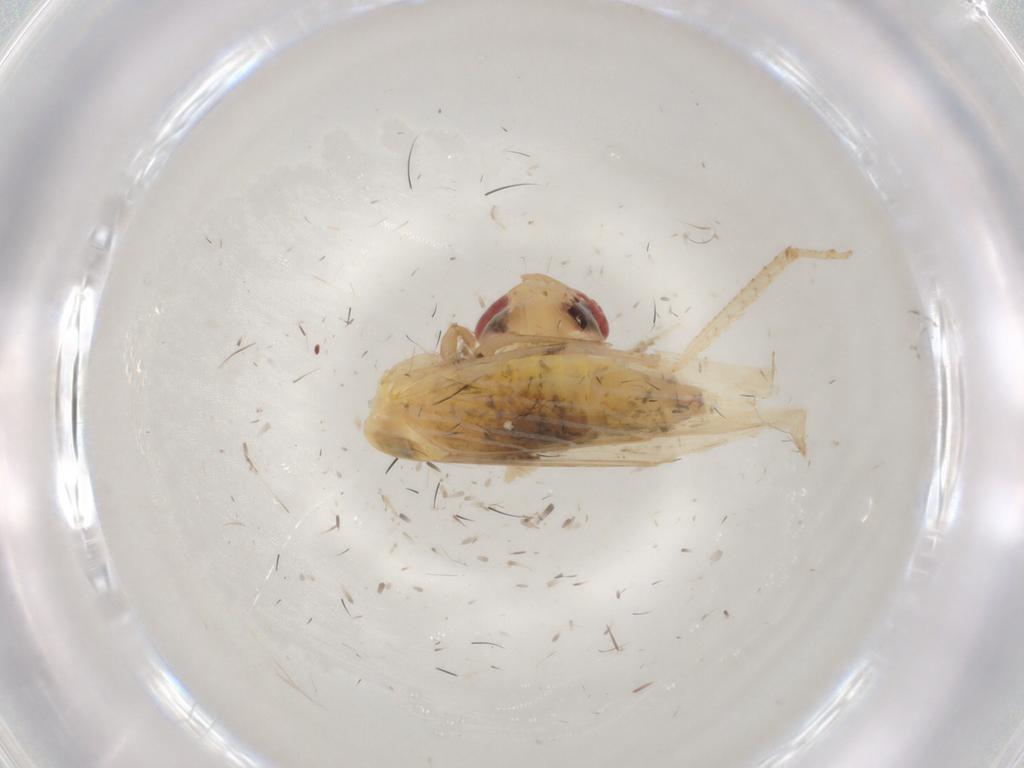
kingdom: Animalia
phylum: Arthropoda
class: Insecta
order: Hemiptera
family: Cicadellidae
